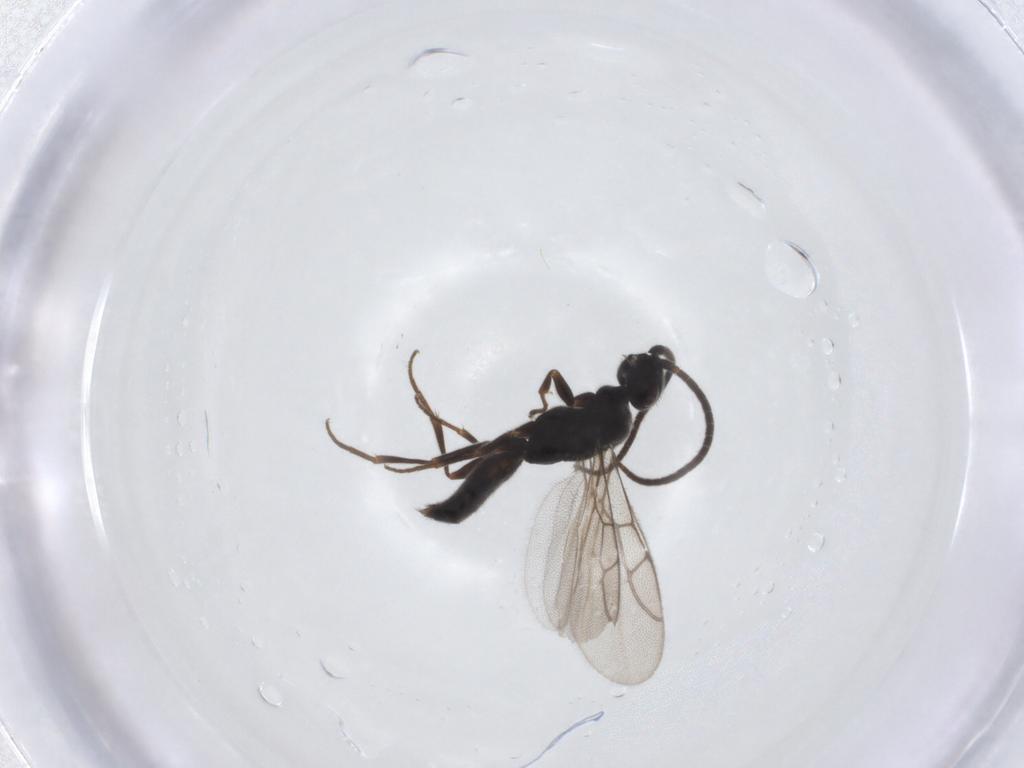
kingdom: Animalia
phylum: Arthropoda
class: Insecta
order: Hymenoptera
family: Sclerogibbidae
